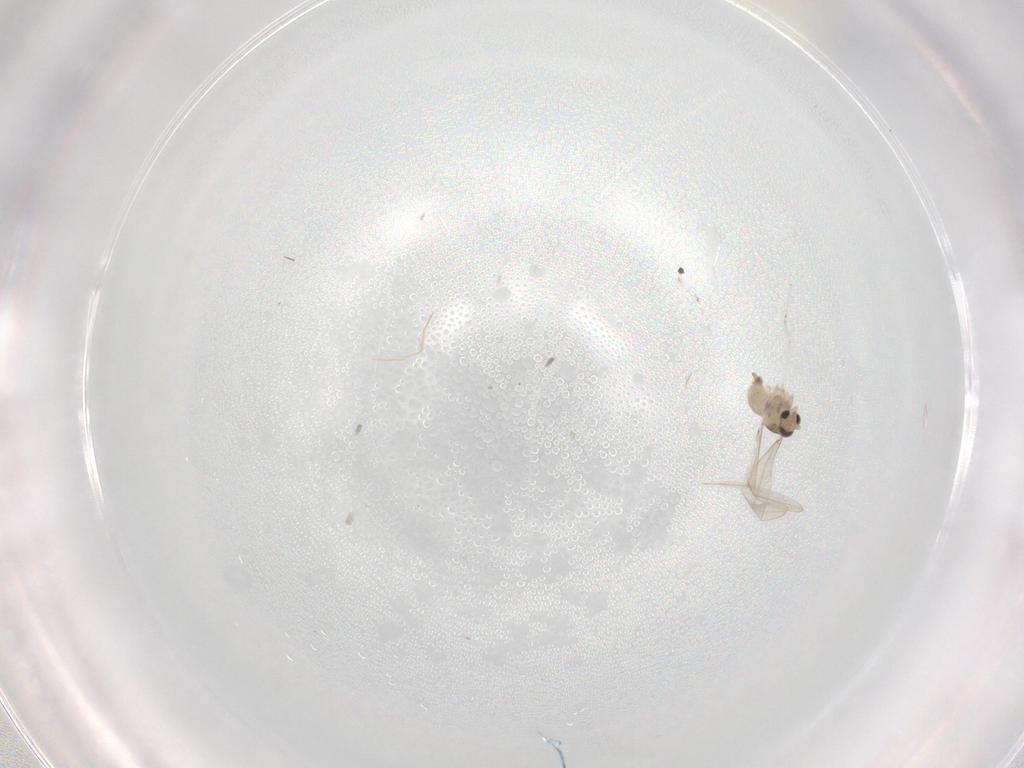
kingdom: Animalia
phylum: Arthropoda
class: Insecta
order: Diptera
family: Cecidomyiidae
